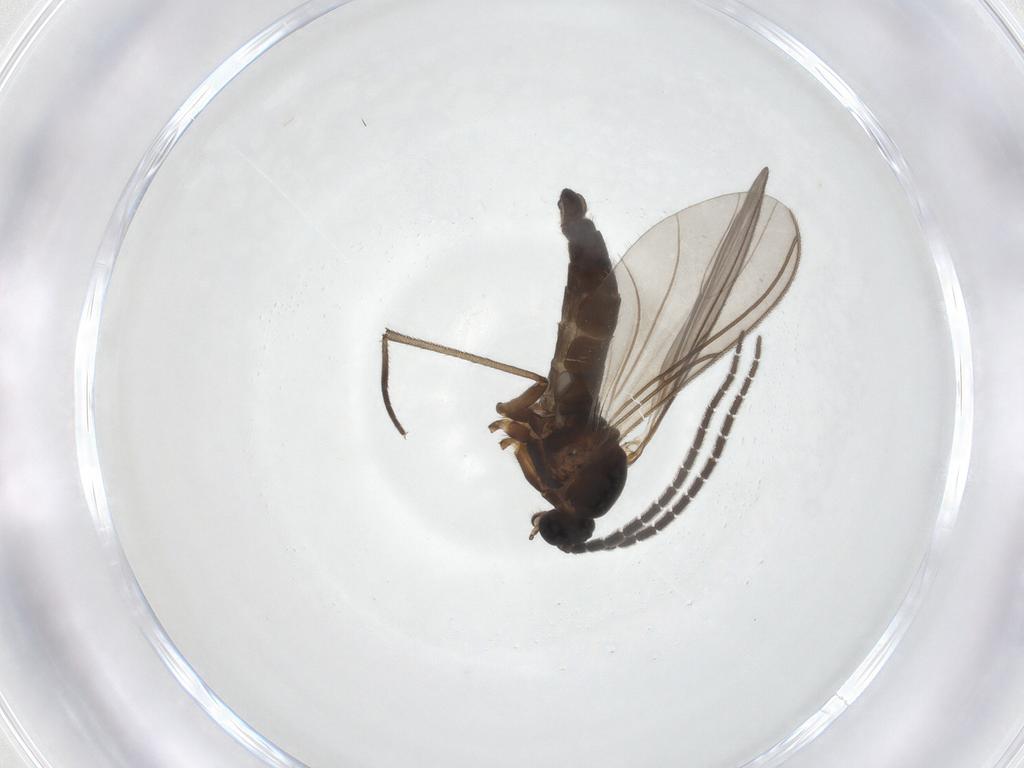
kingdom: Animalia
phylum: Arthropoda
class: Insecta
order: Diptera
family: Sciaridae
